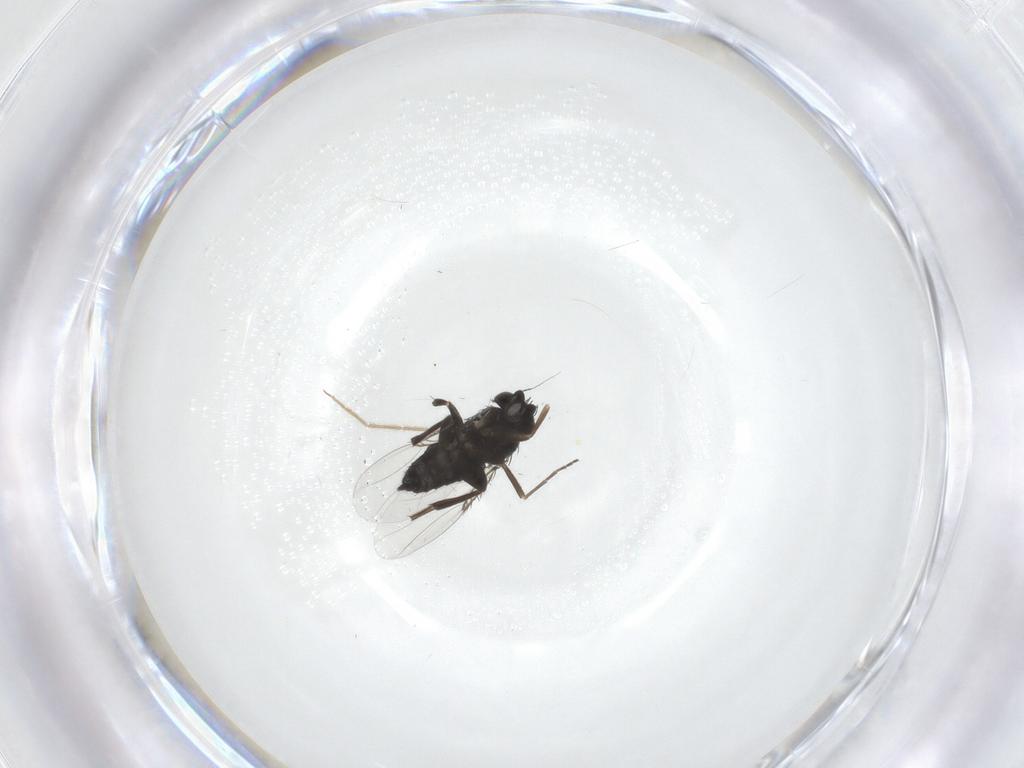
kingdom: Animalia
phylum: Arthropoda
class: Insecta
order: Diptera
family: Phoridae
